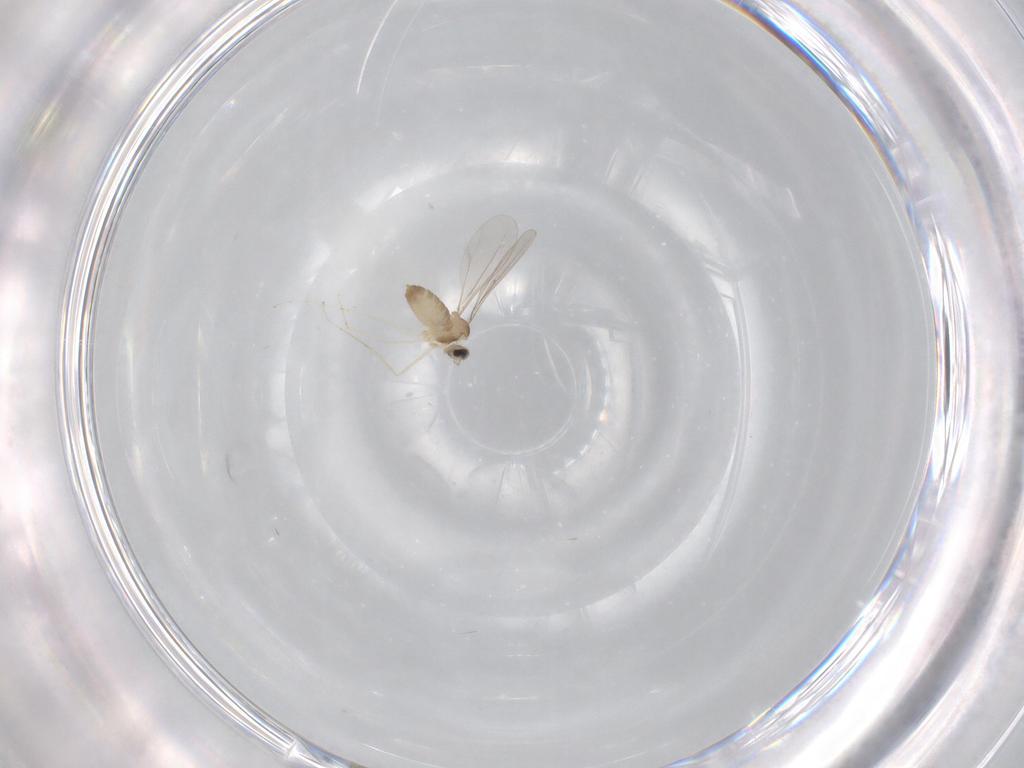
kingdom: Animalia
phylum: Arthropoda
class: Insecta
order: Diptera
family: Cecidomyiidae
